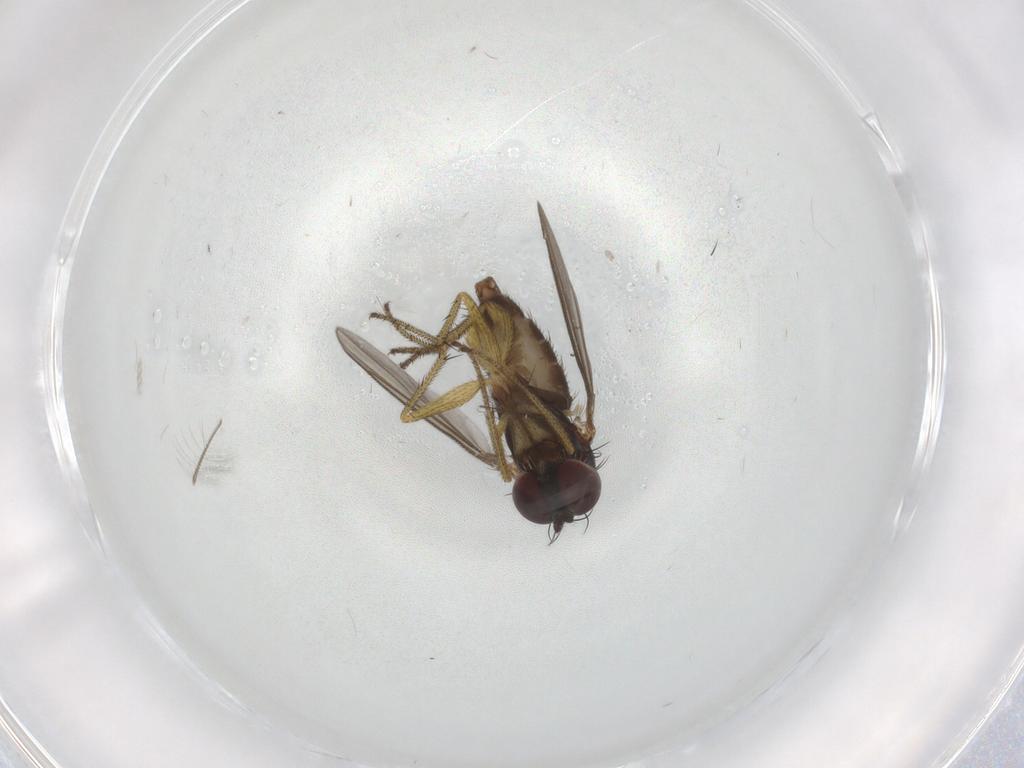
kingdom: Animalia
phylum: Arthropoda
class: Insecta
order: Diptera
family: Chironomidae
